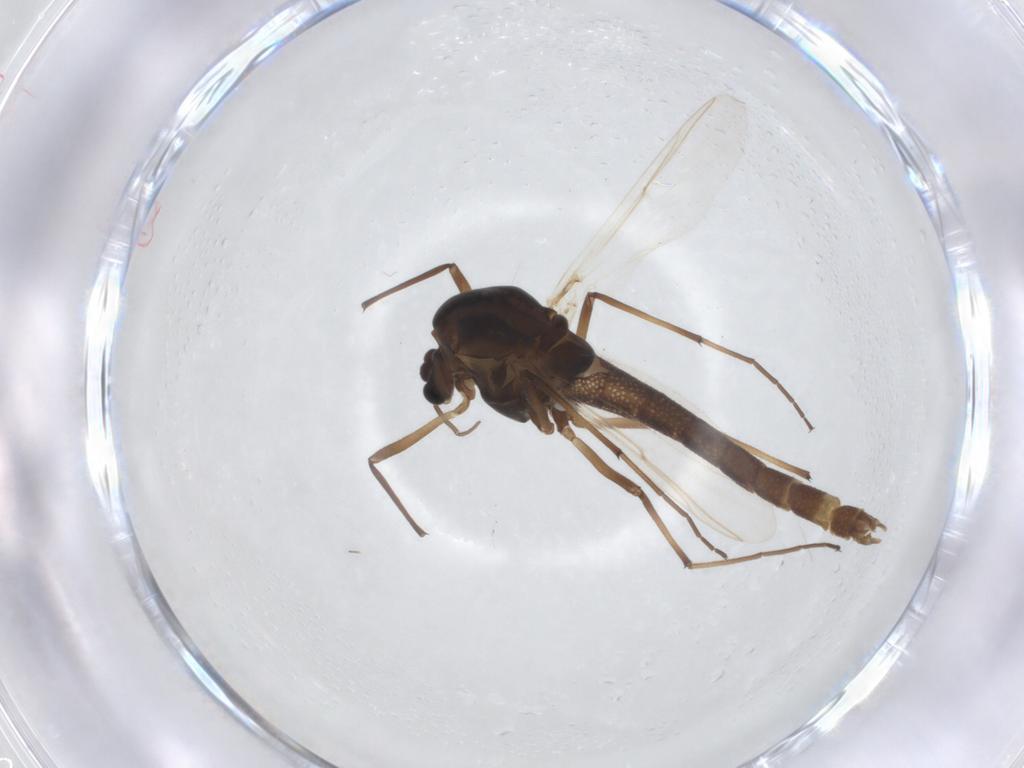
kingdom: Animalia
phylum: Arthropoda
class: Insecta
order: Diptera
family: Chironomidae
